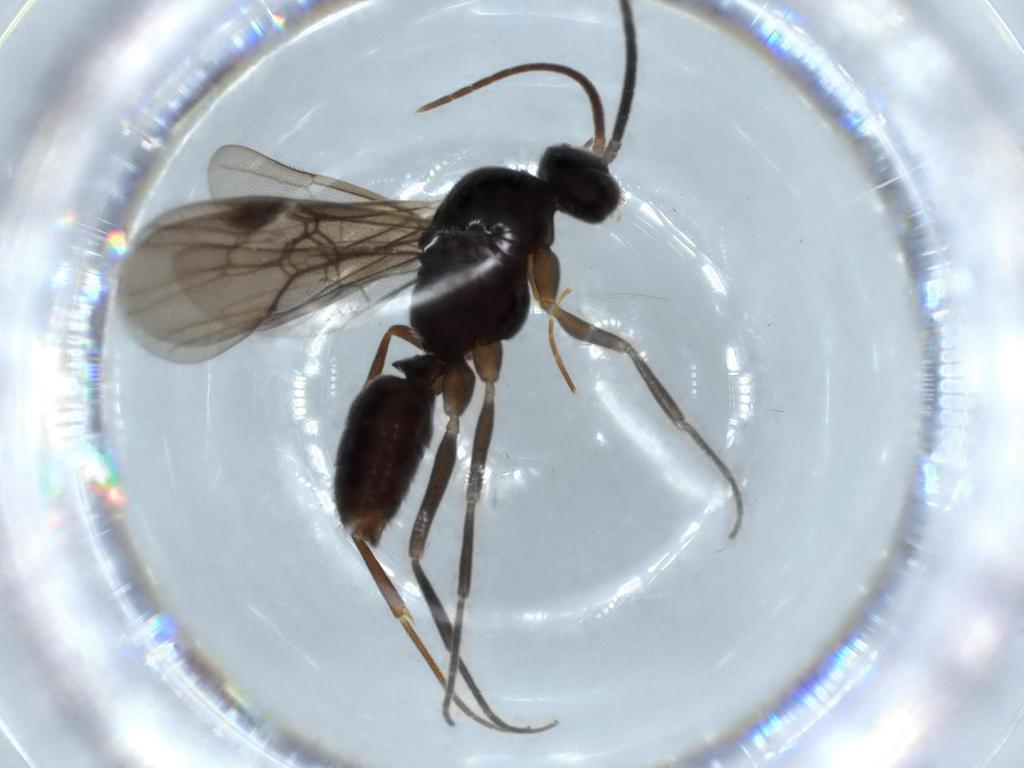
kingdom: Animalia
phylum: Arthropoda
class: Insecta
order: Hymenoptera
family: Formicidae
